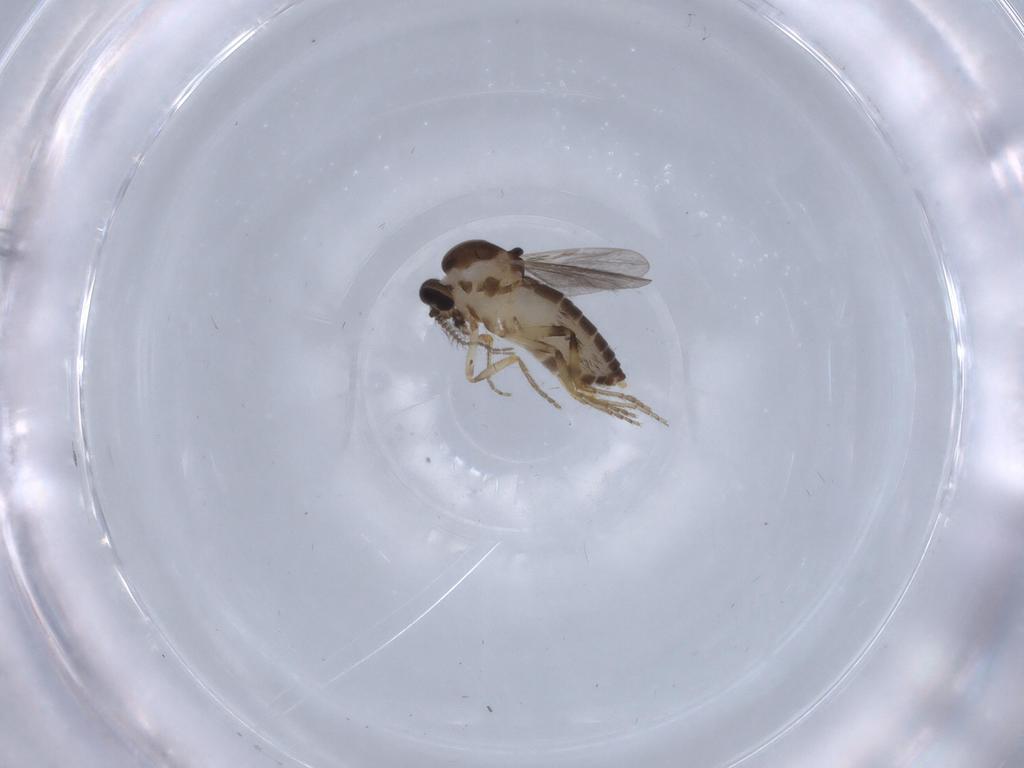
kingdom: Animalia
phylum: Arthropoda
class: Insecta
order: Diptera
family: Ceratopogonidae
